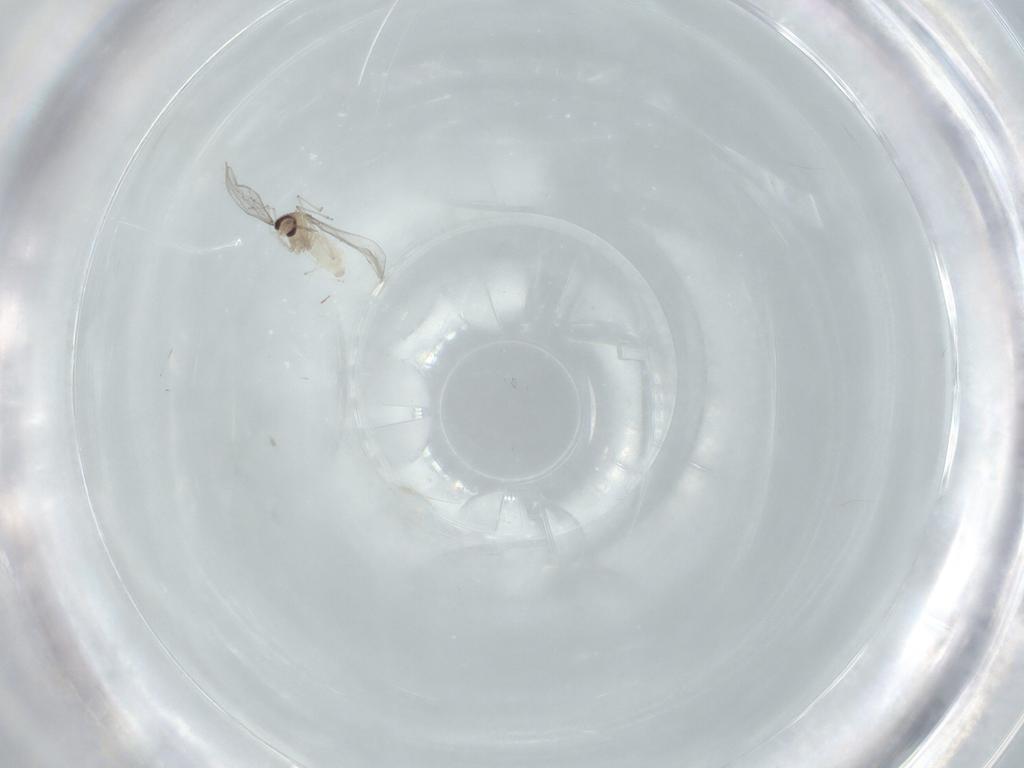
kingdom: Animalia
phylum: Arthropoda
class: Insecta
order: Diptera
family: Cecidomyiidae
